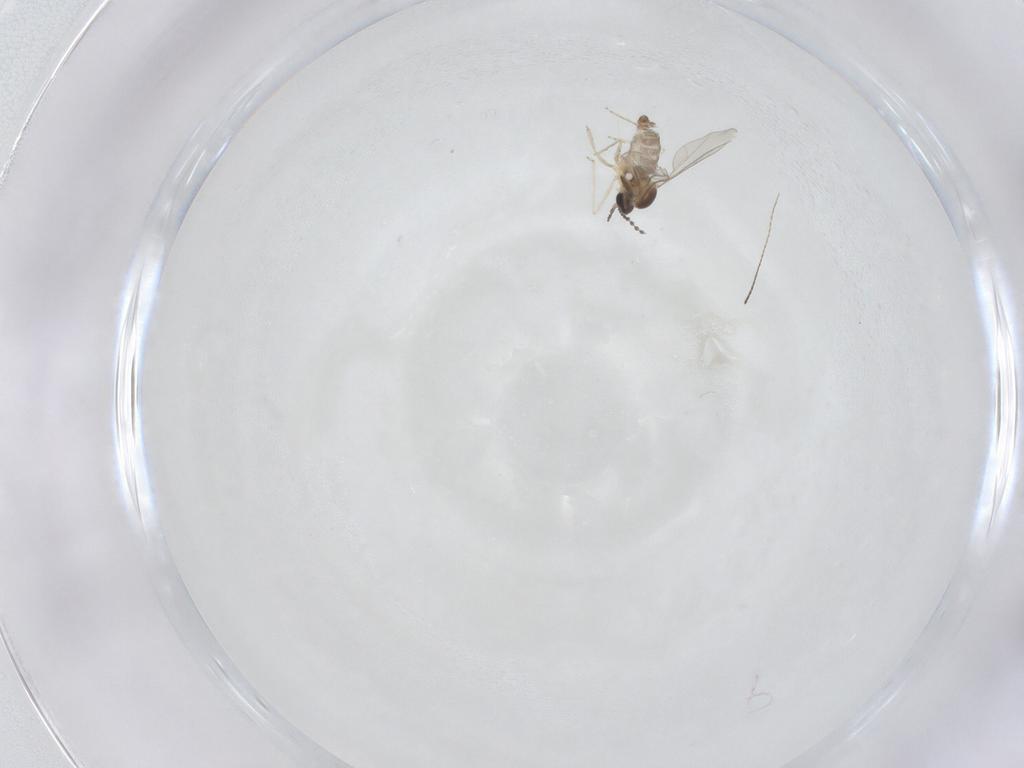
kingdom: Animalia
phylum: Arthropoda
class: Insecta
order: Diptera
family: Cecidomyiidae
